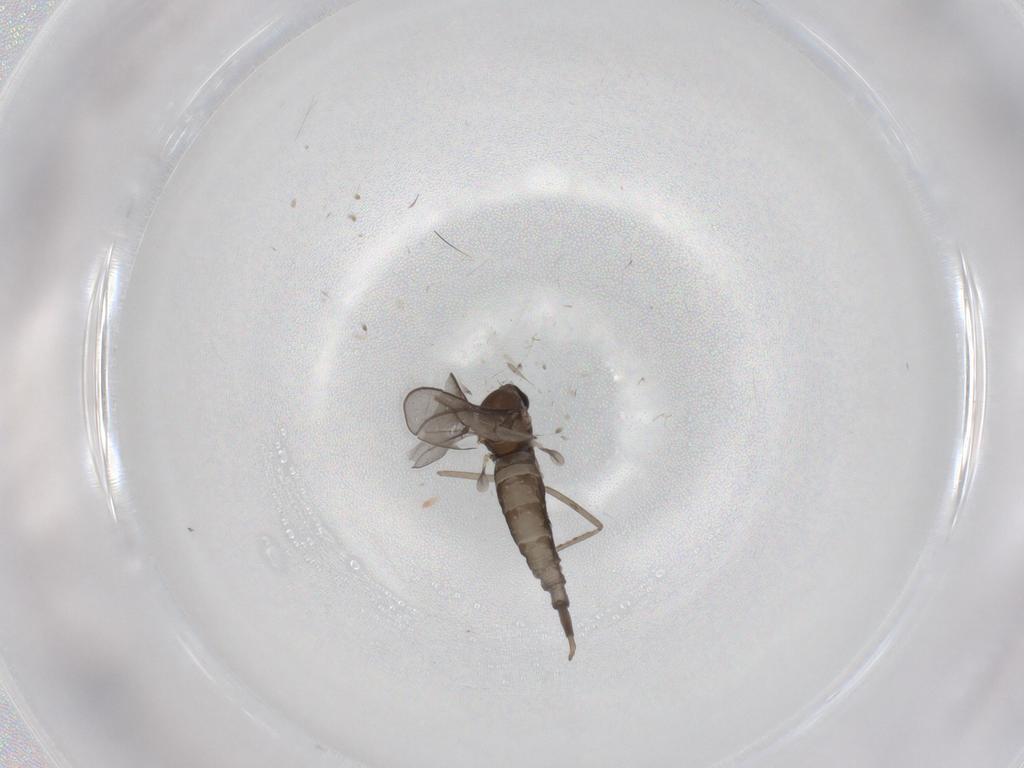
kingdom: Animalia
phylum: Arthropoda
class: Insecta
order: Diptera
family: Cecidomyiidae
